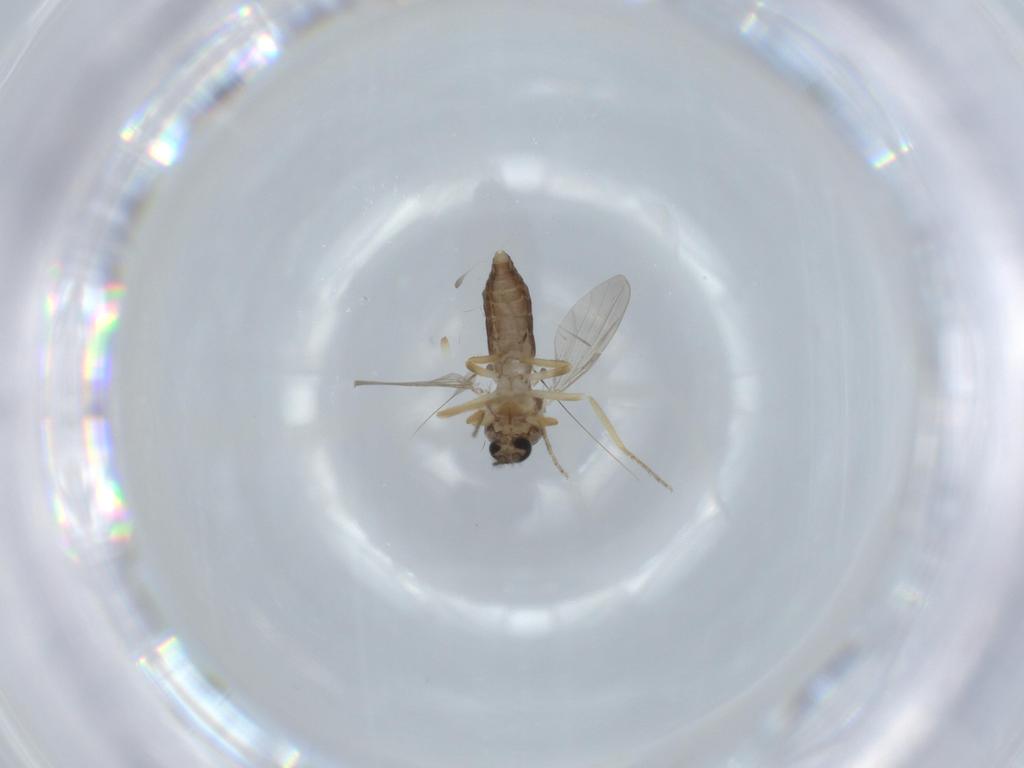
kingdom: Animalia
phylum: Arthropoda
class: Insecta
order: Diptera
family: Ceratopogonidae
